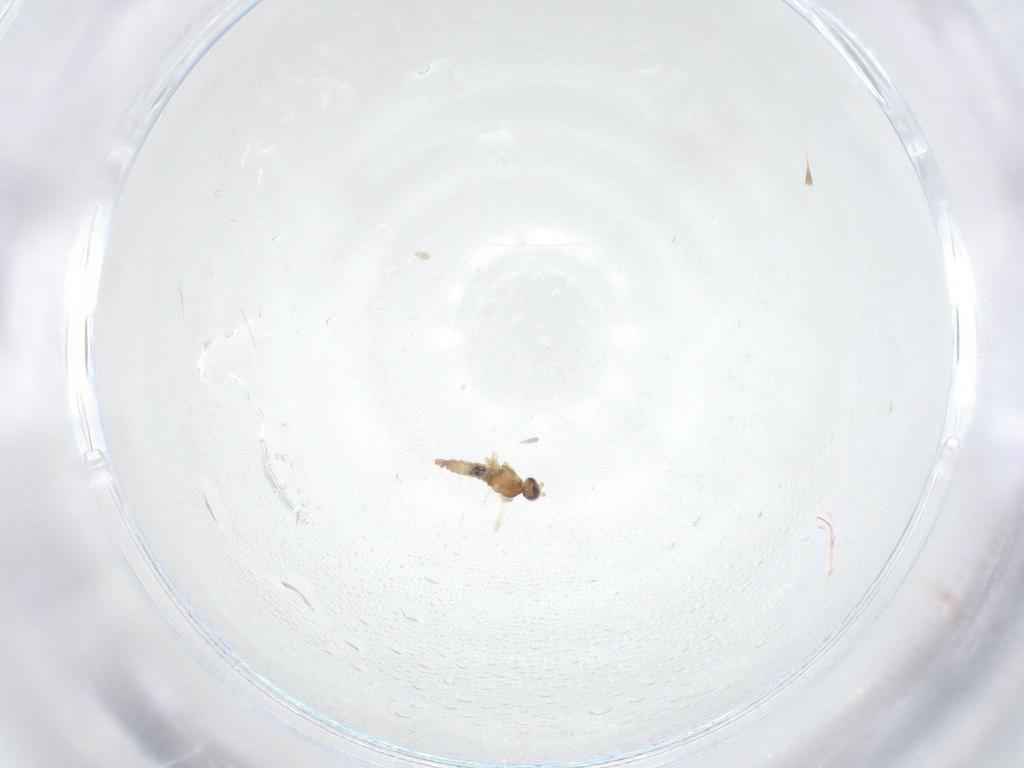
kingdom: Animalia
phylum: Arthropoda
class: Insecta
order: Diptera
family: Cecidomyiidae
